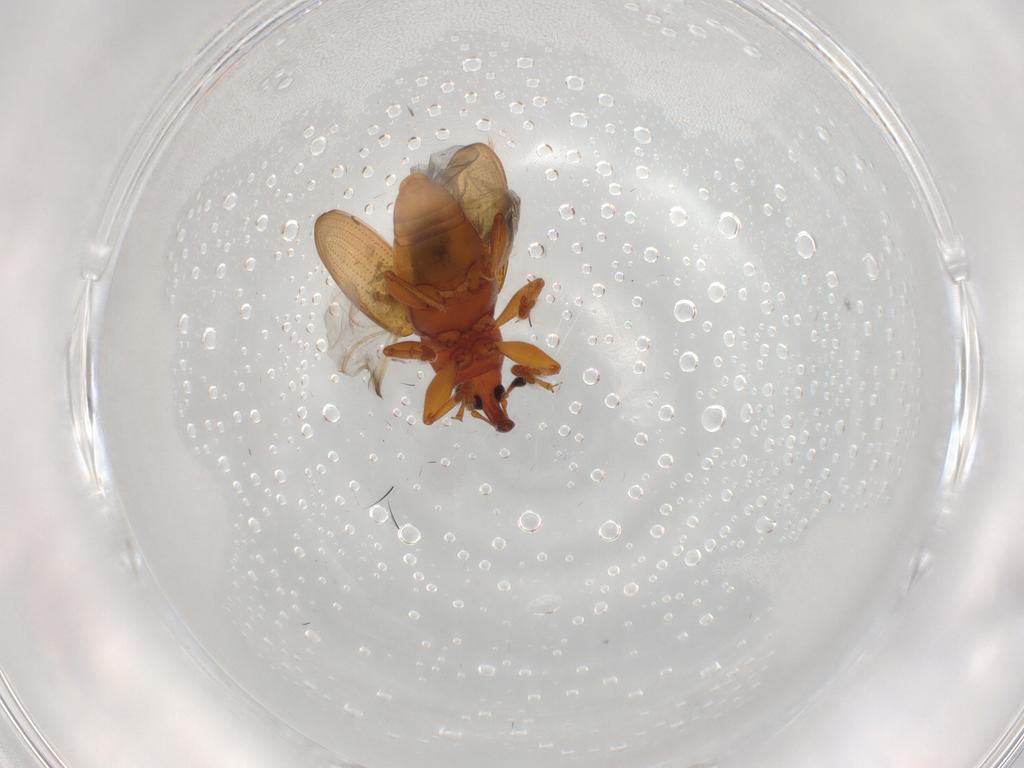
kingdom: Animalia
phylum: Arthropoda
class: Insecta
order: Coleoptera
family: Curculionidae
